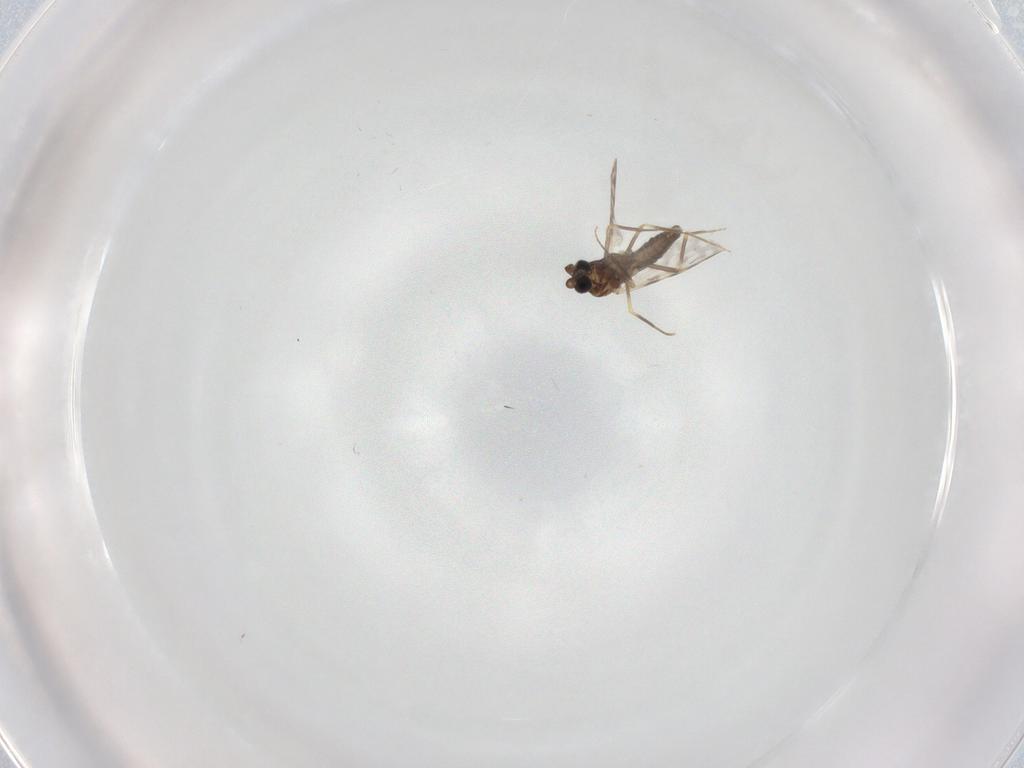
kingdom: Animalia
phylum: Arthropoda
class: Insecta
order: Diptera
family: Ceratopogonidae
